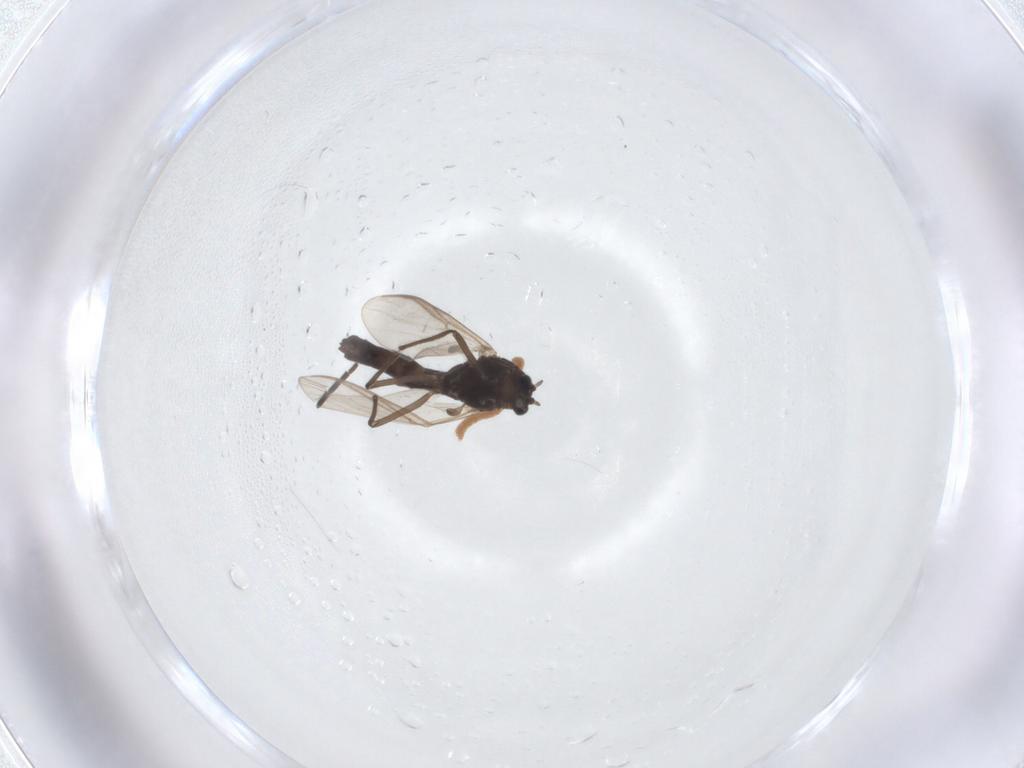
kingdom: Animalia
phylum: Arthropoda
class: Insecta
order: Diptera
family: Sciaridae
